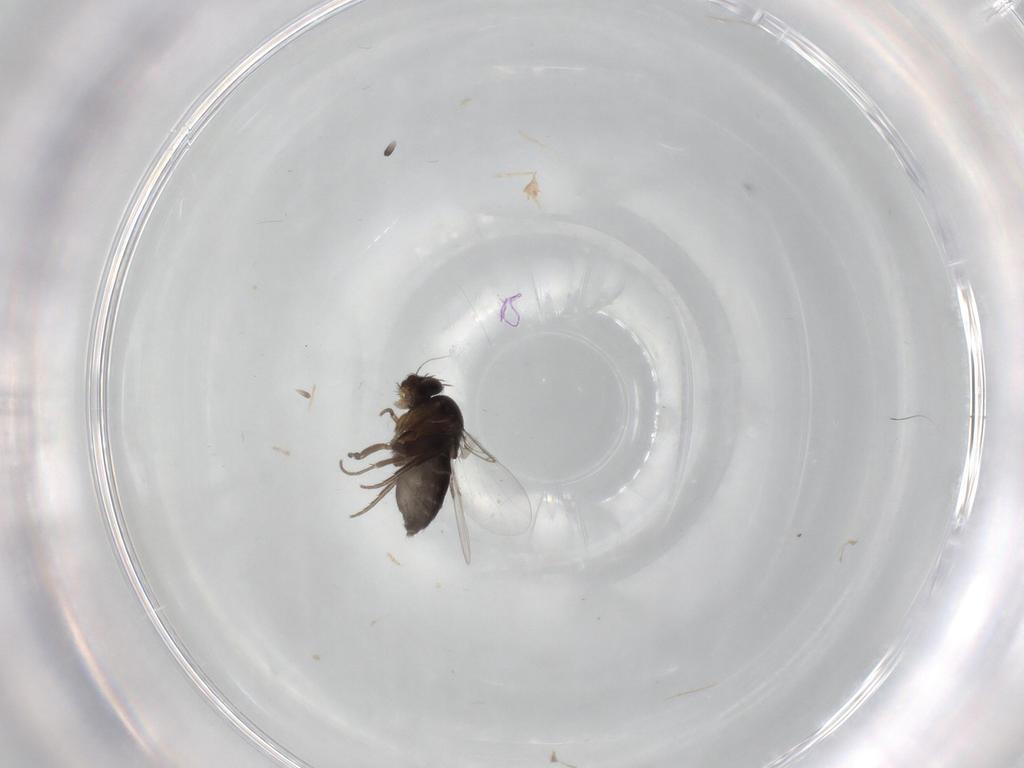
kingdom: Animalia
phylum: Arthropoda
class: Insecta
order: Diptera
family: Phoridae
